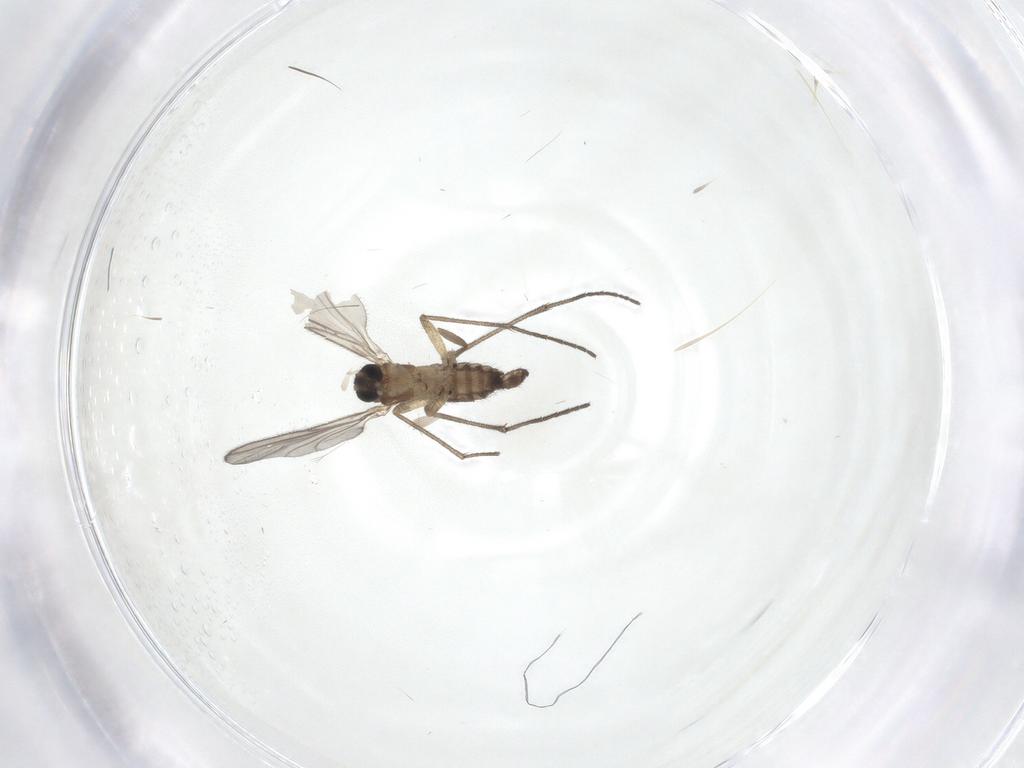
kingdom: Animalia
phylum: Arthropoda
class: Insecta
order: Diptera
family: Sciaridae
